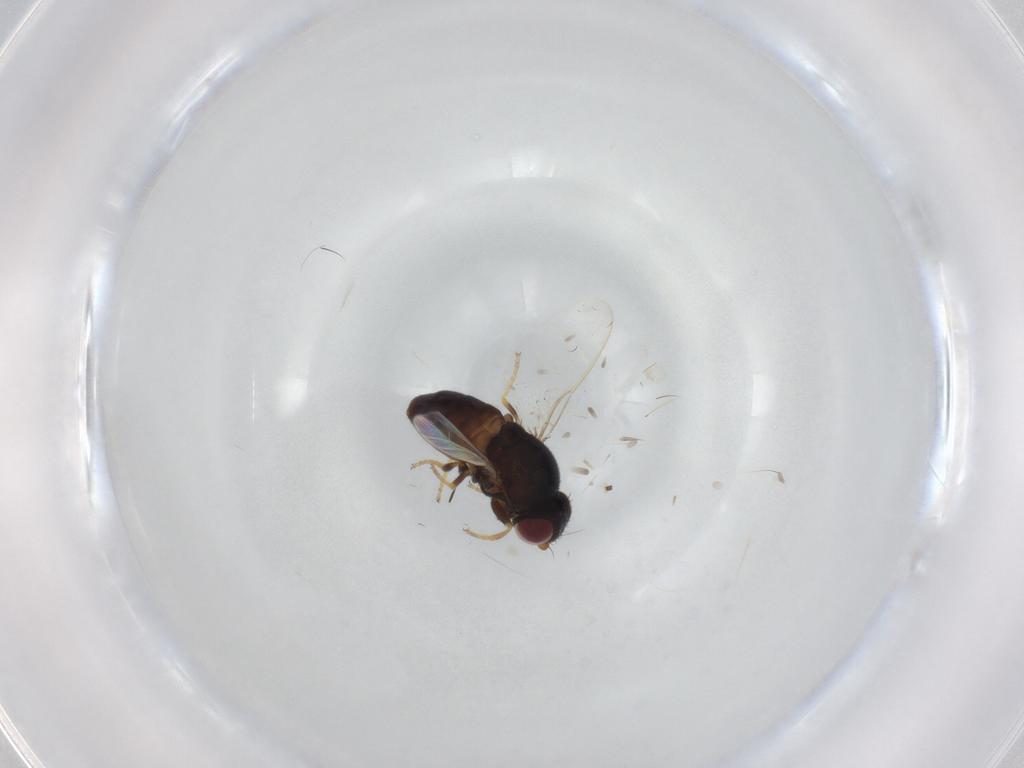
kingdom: Animalia
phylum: Arthropoda
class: Insecta
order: Diptera
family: Chloropidae
